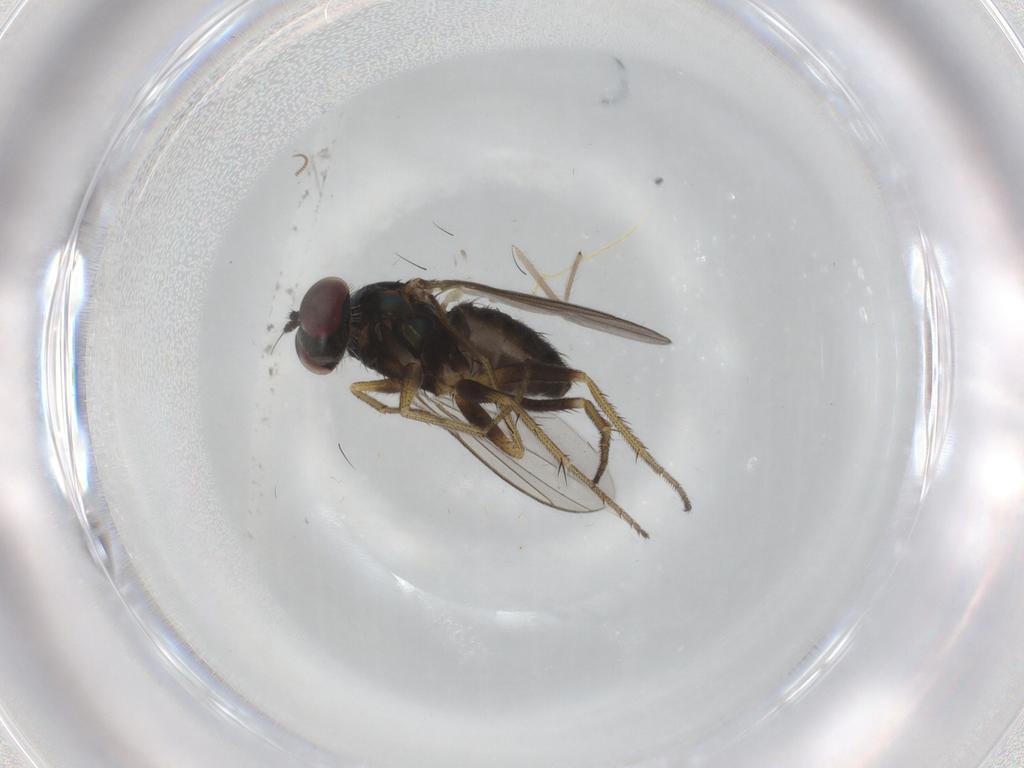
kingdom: Animalia
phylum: Arthropoda
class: Insecta
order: Diptera
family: Chironomidae
